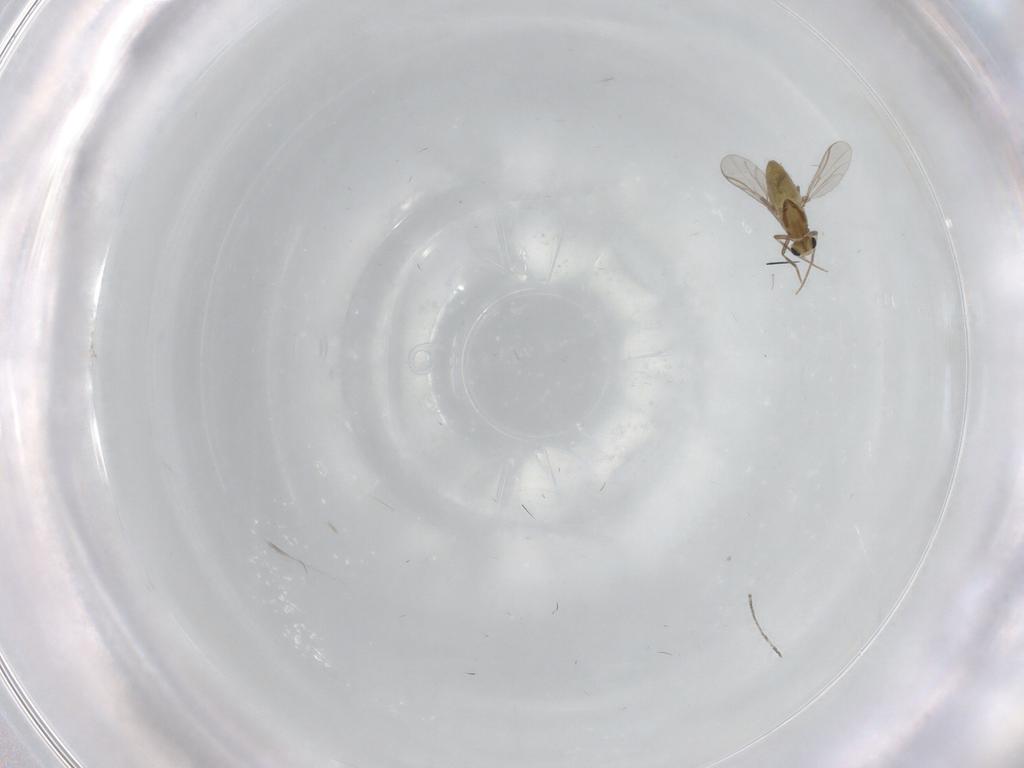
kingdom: Animalia
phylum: Arthropoda
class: Insecta
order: Diptera
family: Chironomidae
